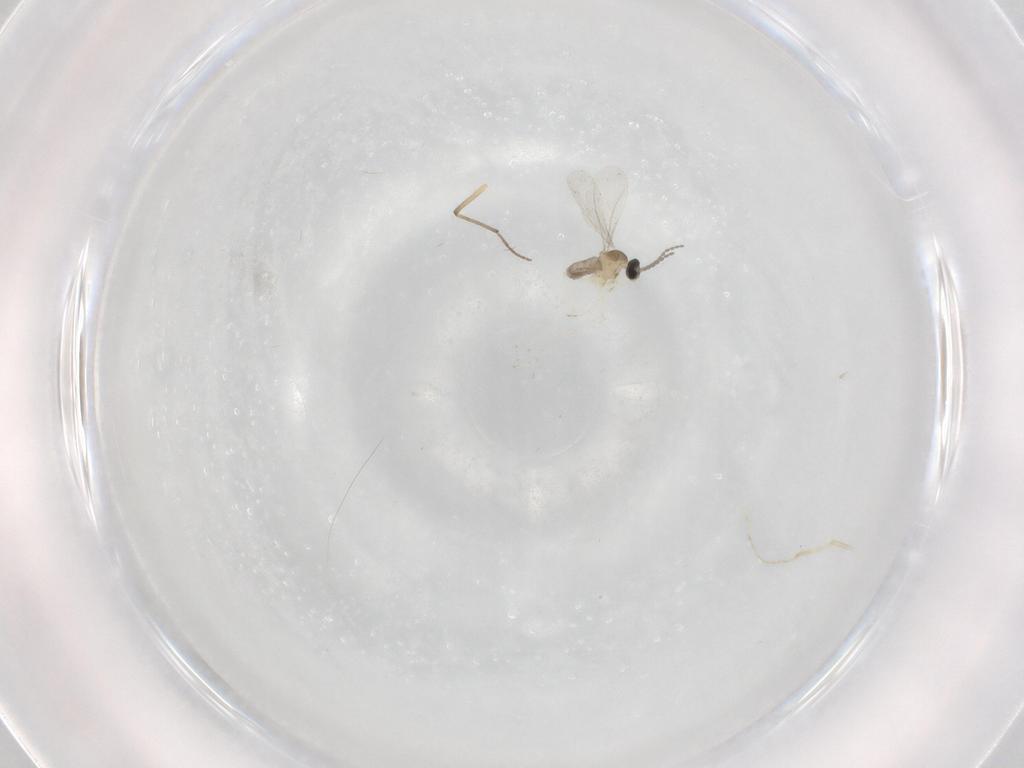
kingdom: Animalia
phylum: Arthropoda
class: Insecta
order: Diptera
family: Cecidomyiidae
